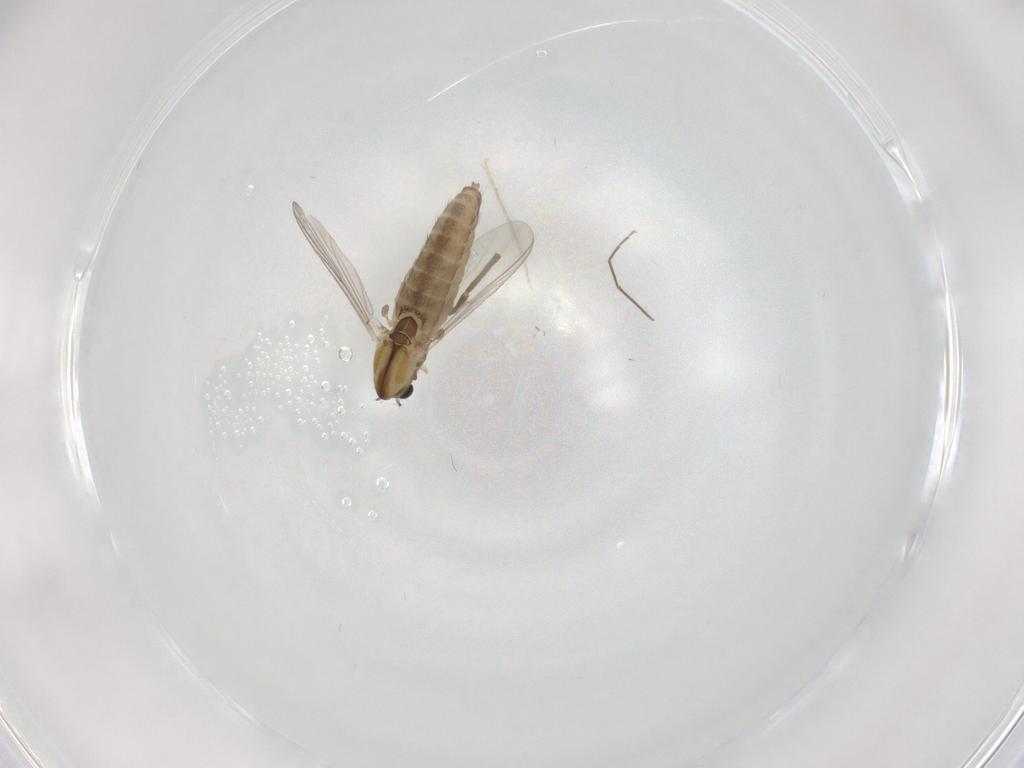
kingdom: Animalia
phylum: Arthropoda
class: Insecta
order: Diptera
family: Chironomidae
